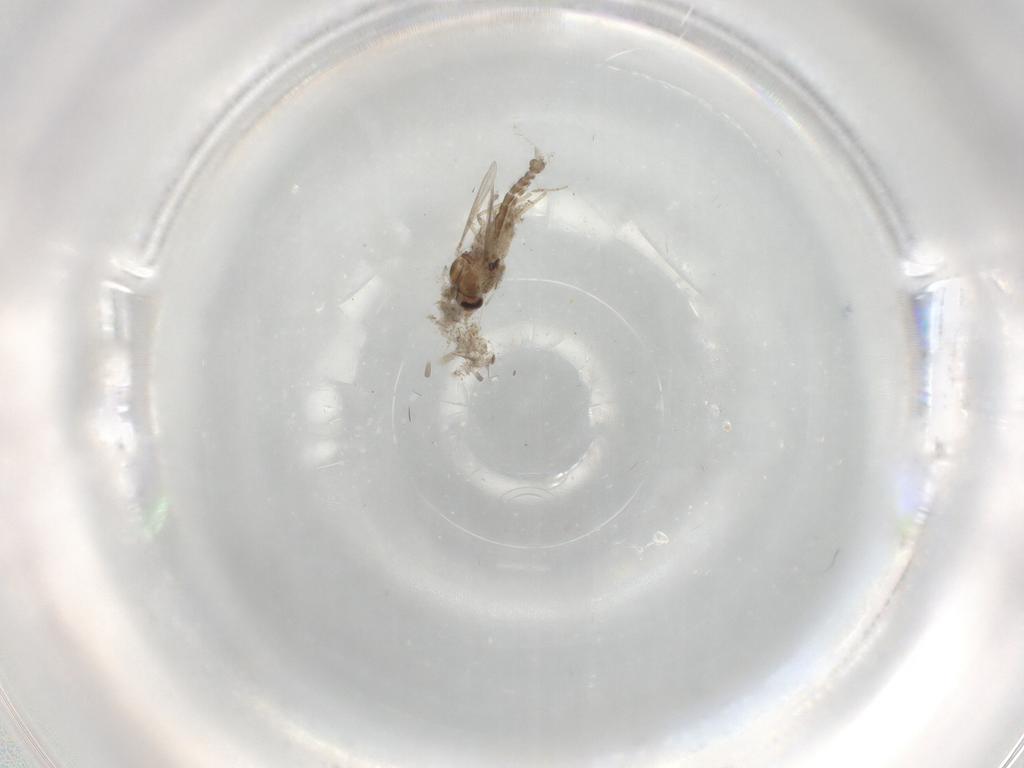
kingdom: Animalia
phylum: Arthropoda
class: Insecta
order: Diptera
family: Ceratopogonidae
